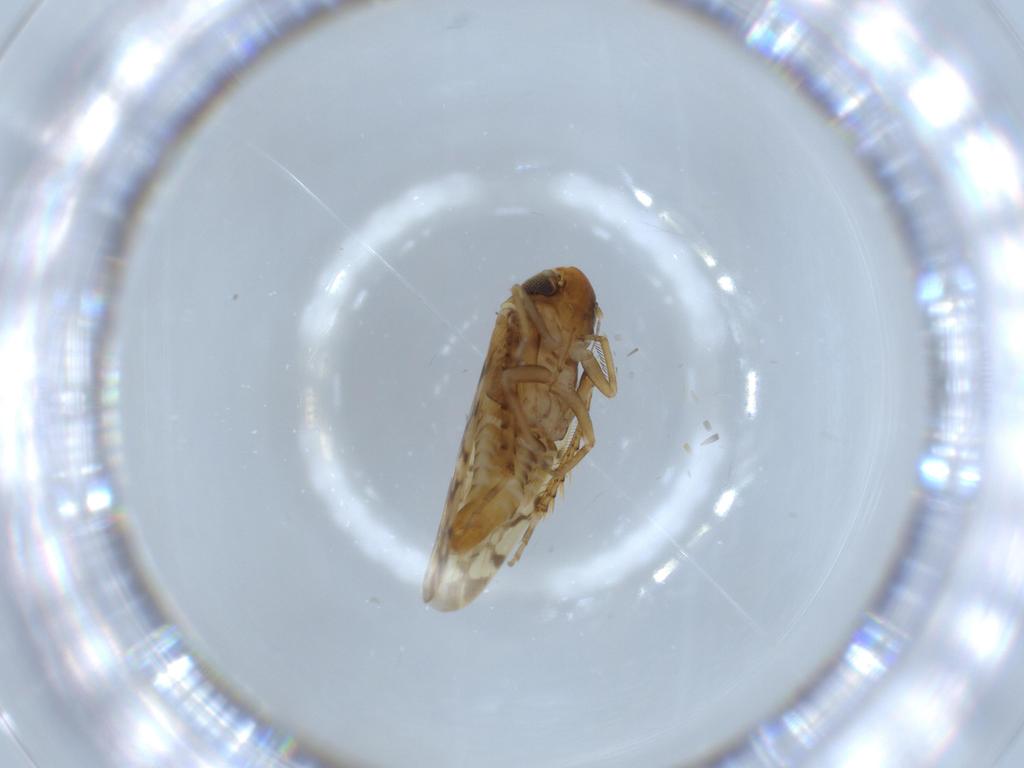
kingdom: Animalia
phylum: Arthropoda
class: Insecta
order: Hemiptera
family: Cicadellidae
